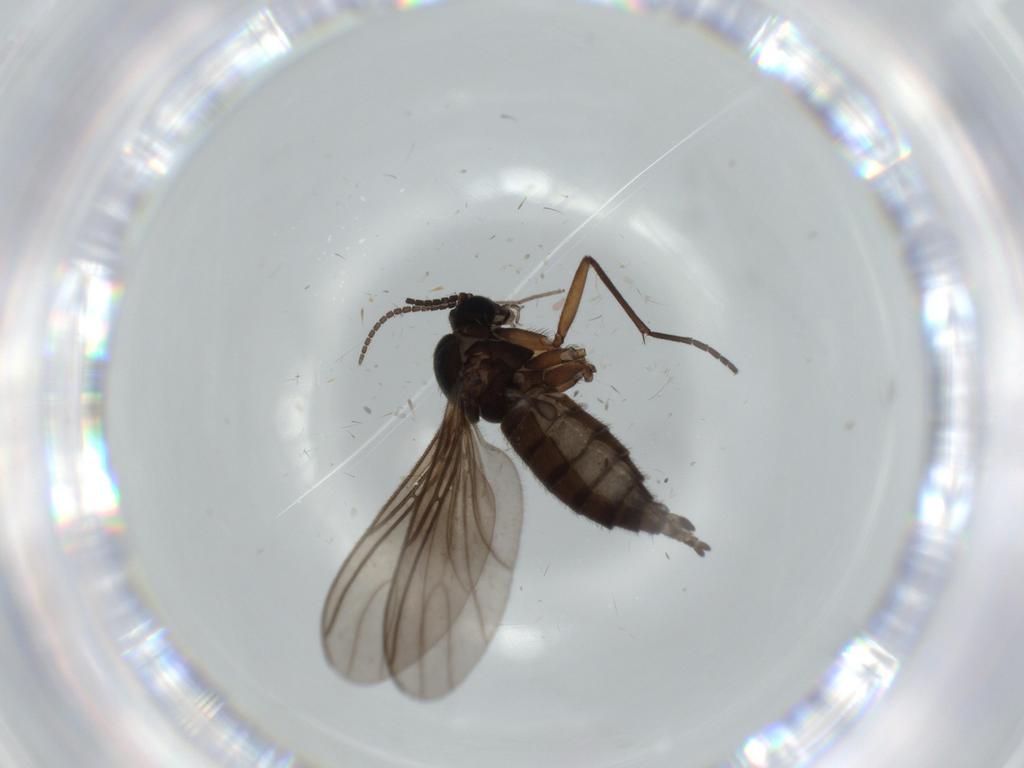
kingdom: Animalia
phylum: Arthropoda
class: Insecta
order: Diptera
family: Sciaridae
